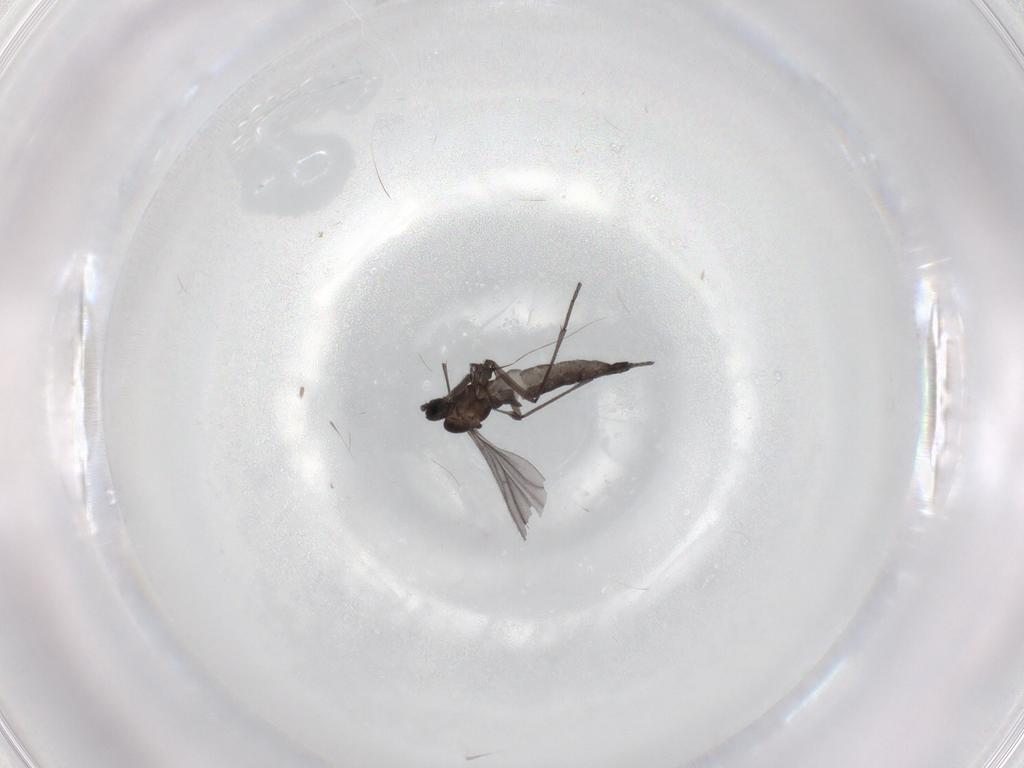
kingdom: Animalia
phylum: Arthropoda
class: Insecta
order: Diptera
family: Sciaridae
